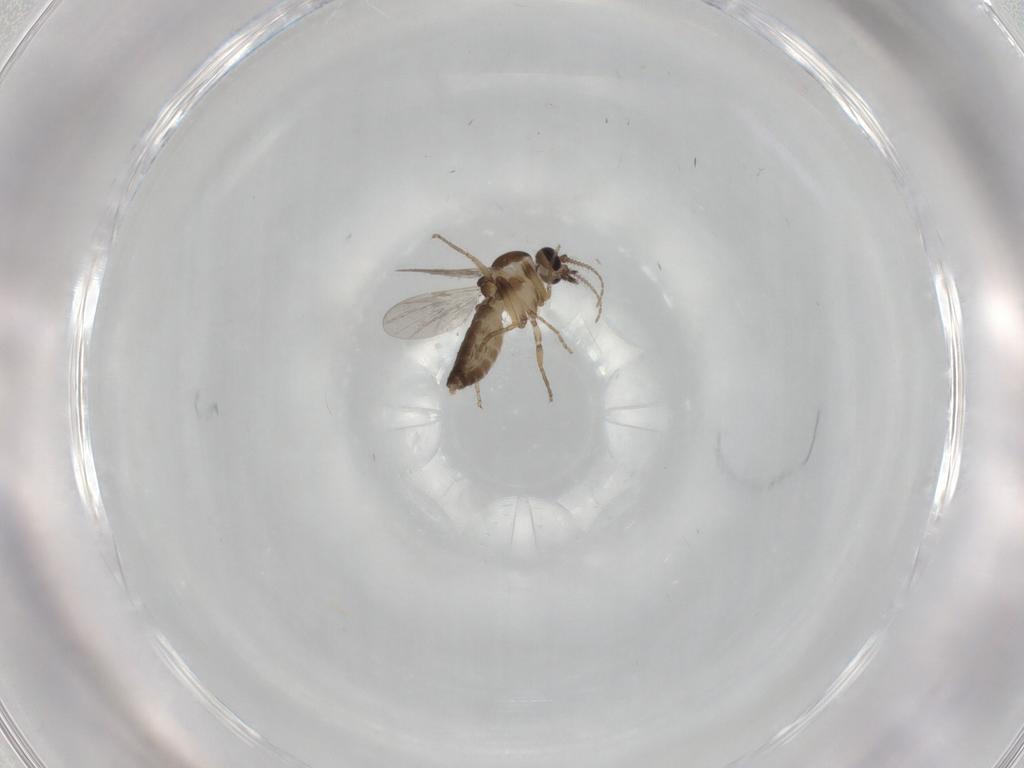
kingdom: Animalia
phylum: Arthropoda
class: Insecta
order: Diptera
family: Ceratopogonidae
